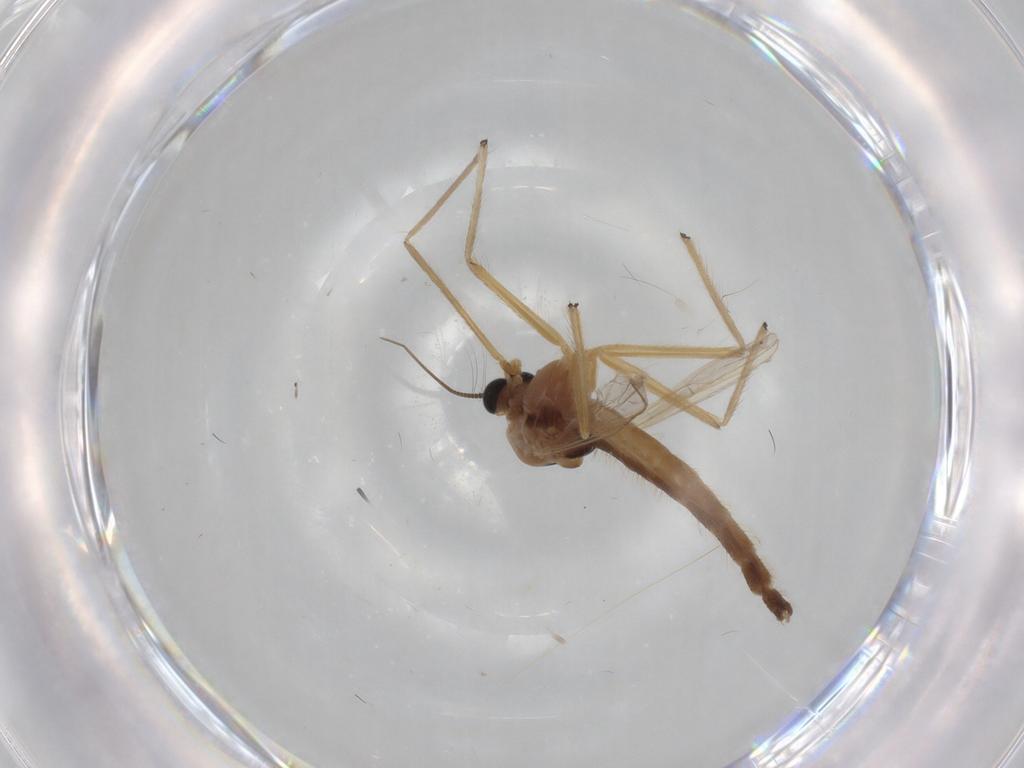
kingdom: Animalia
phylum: Arthropoda
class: Insecta
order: Diptera
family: Chironomidae
